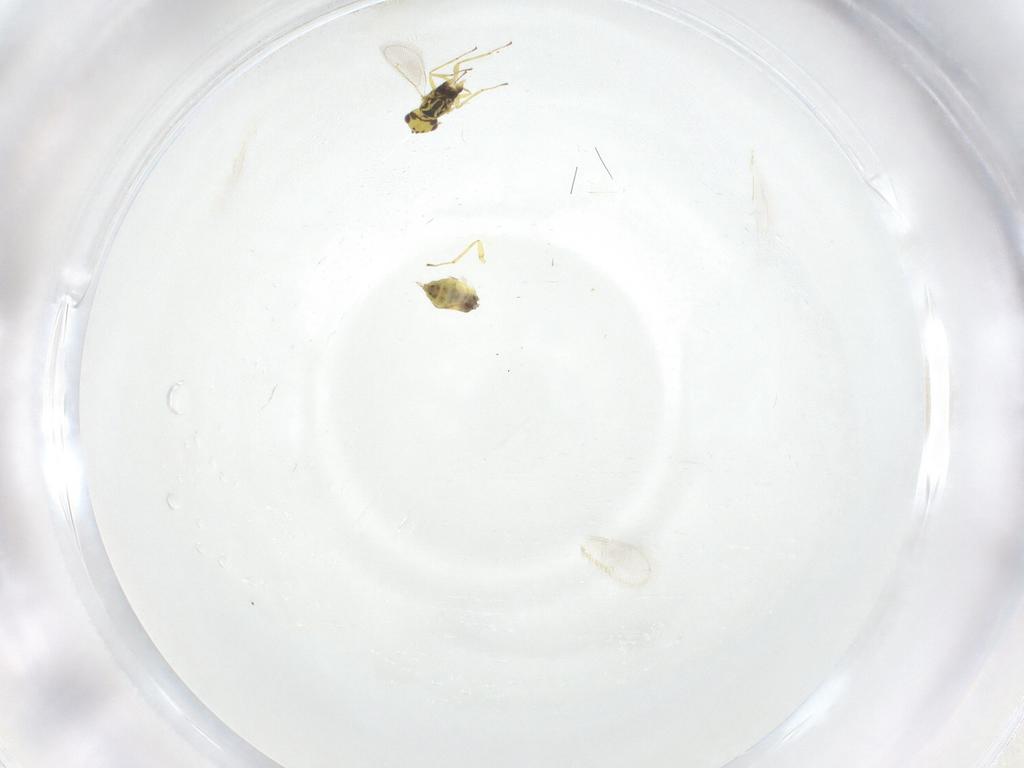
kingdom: Animalia
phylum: Arthropoda
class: Insecta
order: Hymenoptera
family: Eulophidae
